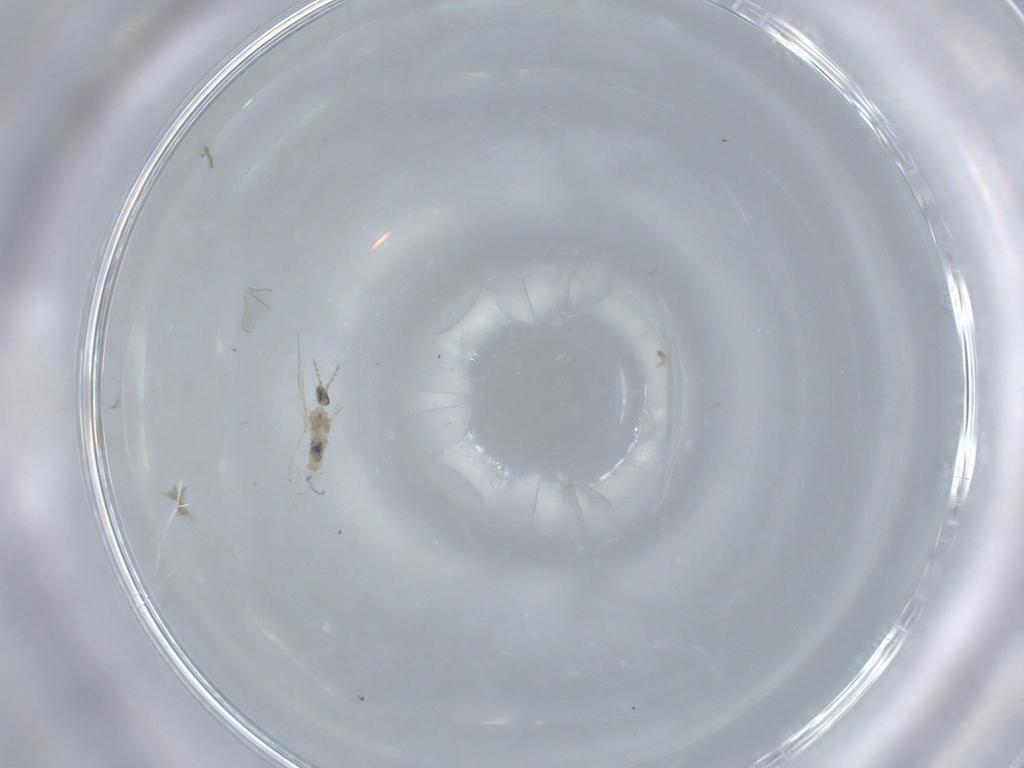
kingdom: Animalia
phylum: Arthropoda
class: Insecta
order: Diptera
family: Cecidomyiidae
